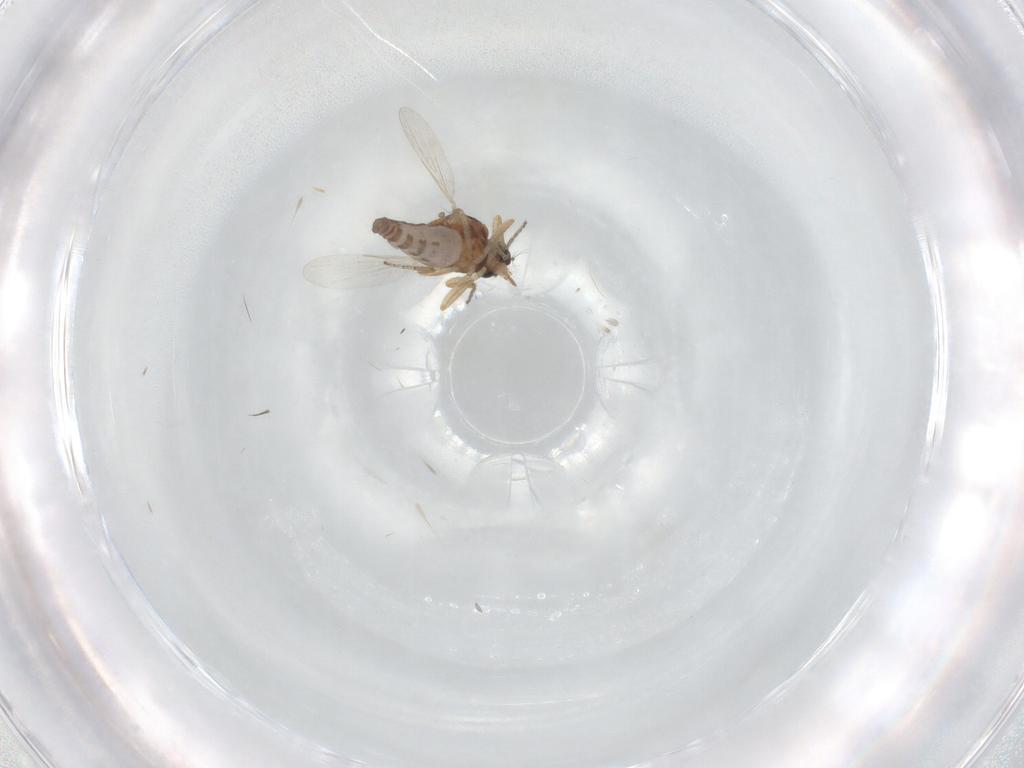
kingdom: Animalia
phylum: Arthropoda
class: Insecta
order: Diptera
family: Ceratopogonidae
